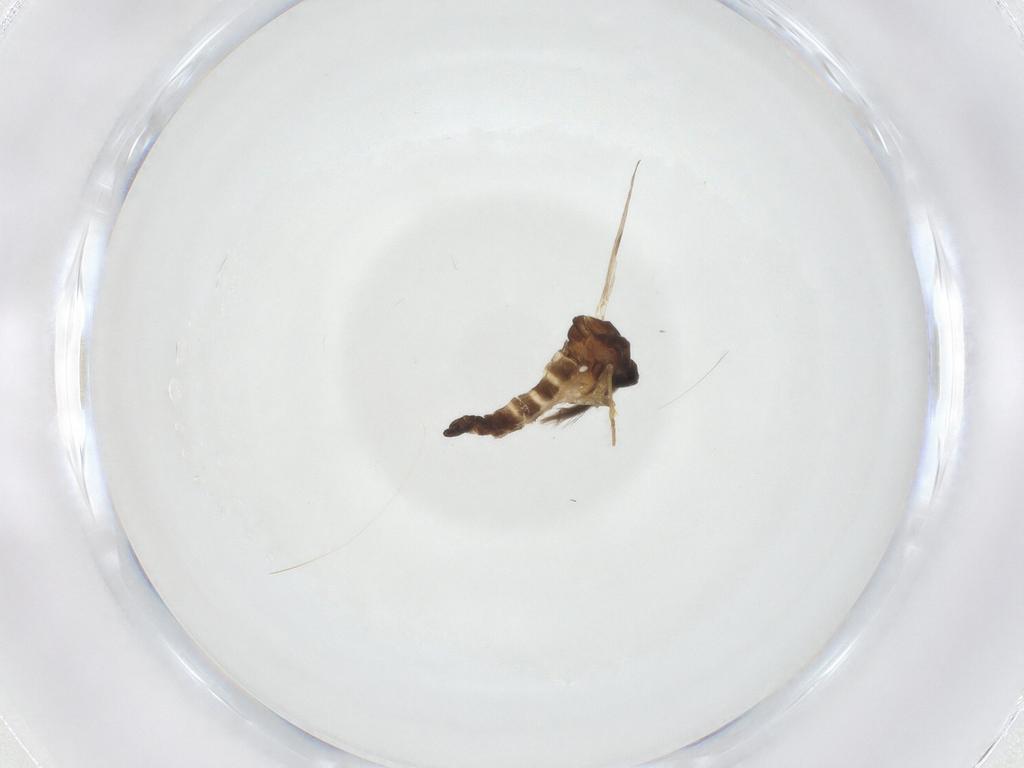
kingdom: Animalia
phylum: Arthropoda
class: Insecta
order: Diptera
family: Ceratopogonidae
